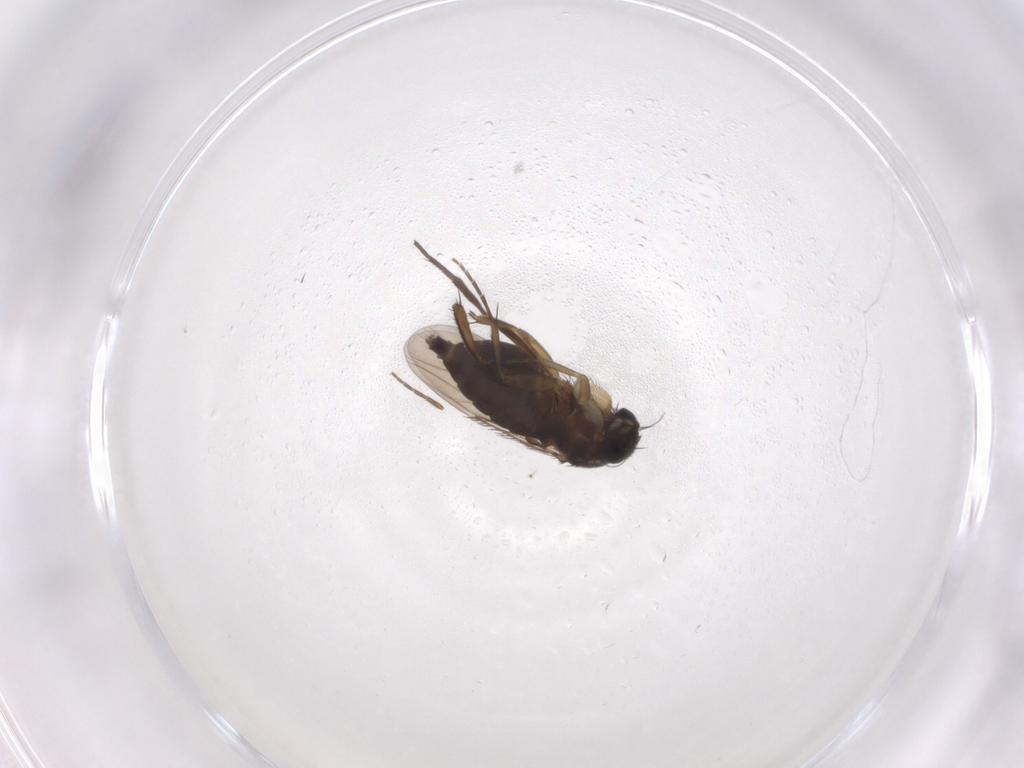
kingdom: Animalia
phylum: Arthropoda
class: Insecta
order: Diptera
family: Phoridae
